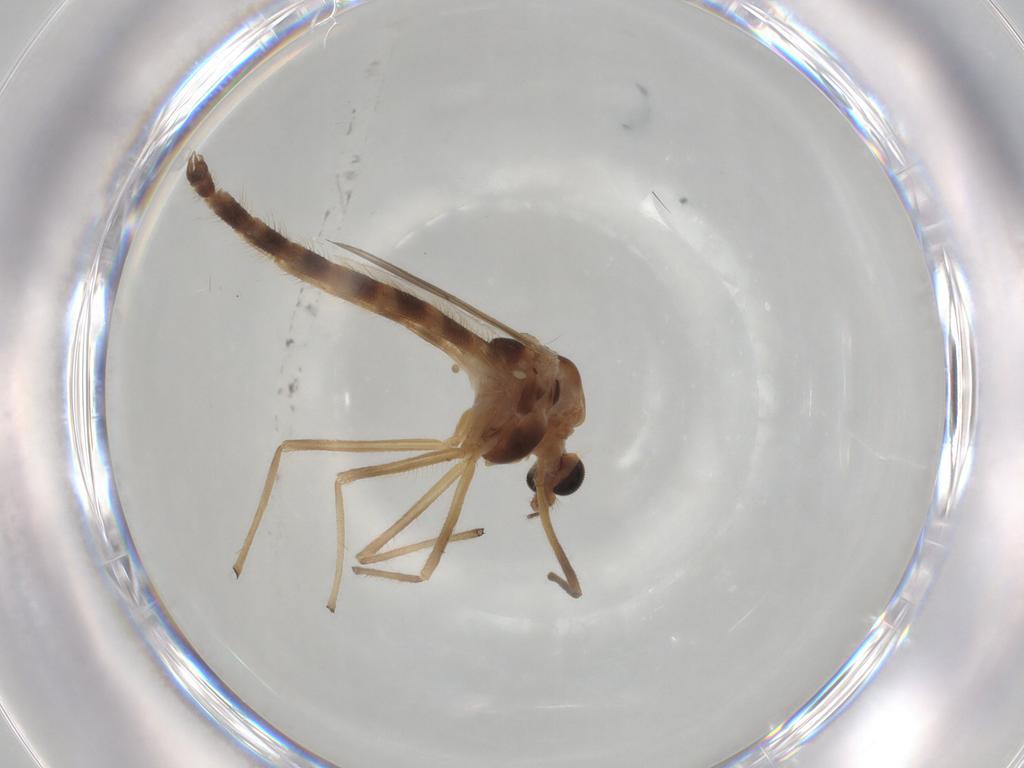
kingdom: Animalia
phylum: Arthropoda
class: Insecta
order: Diptera
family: Chironomidae
